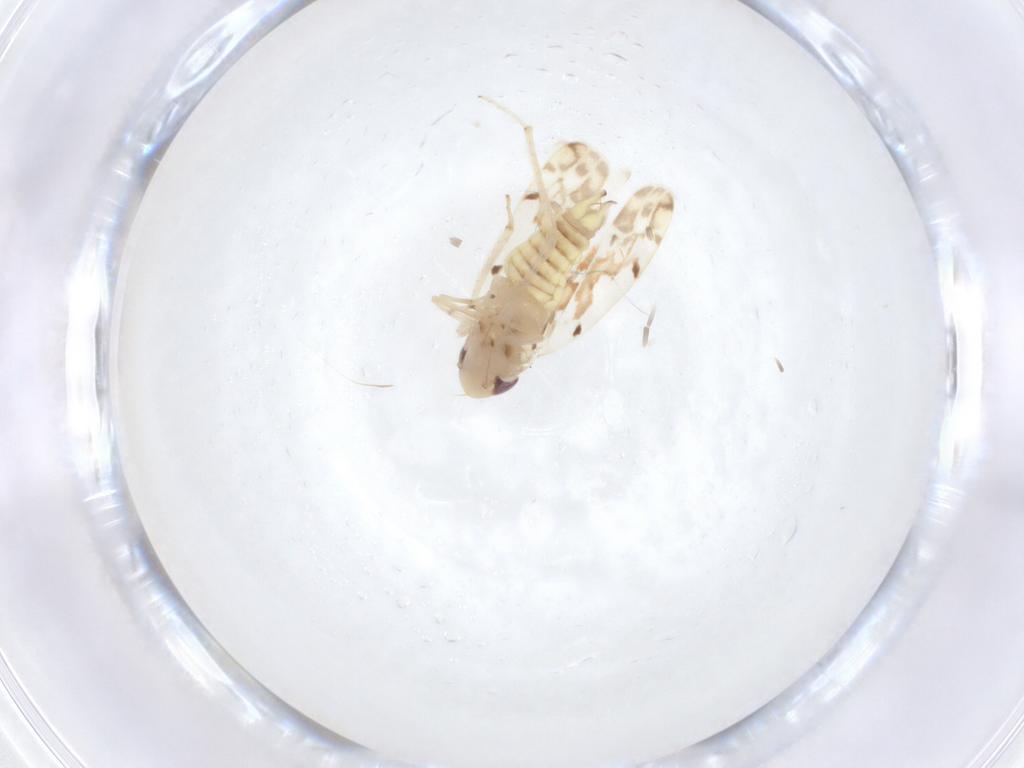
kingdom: Animalia
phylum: Arthropoda
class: Insecta
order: Hemiptera
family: Cicadellidae
